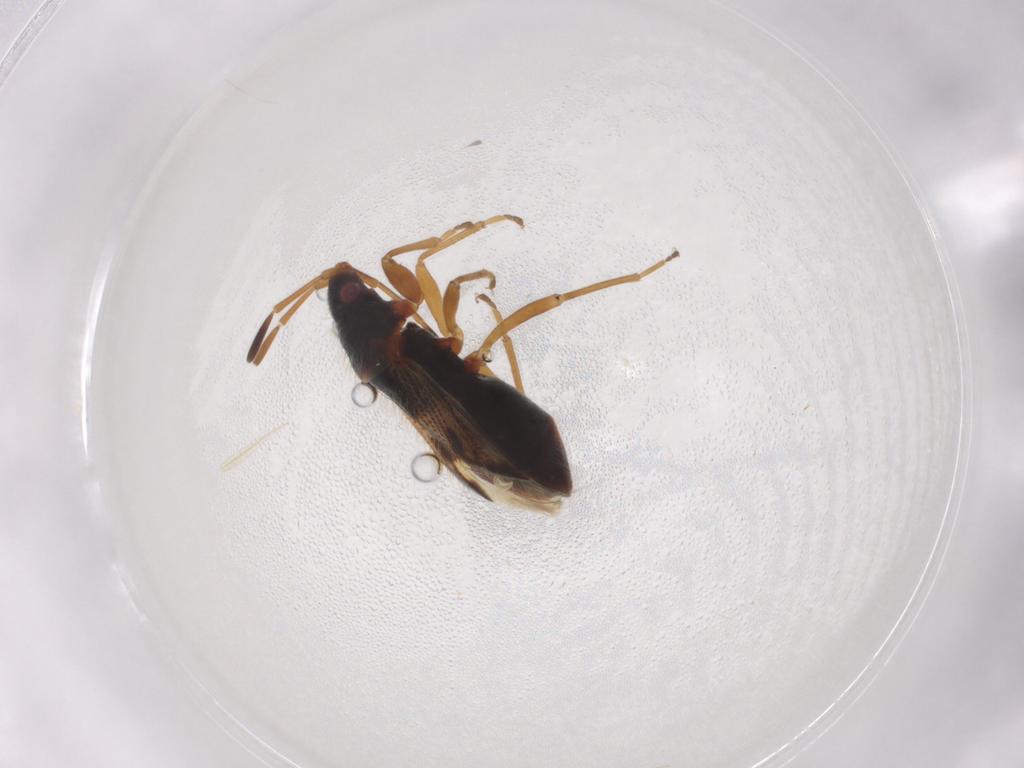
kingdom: Animalia
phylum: Arthropoda
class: Insecta
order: Hemiptera
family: Rhyparochromidae
